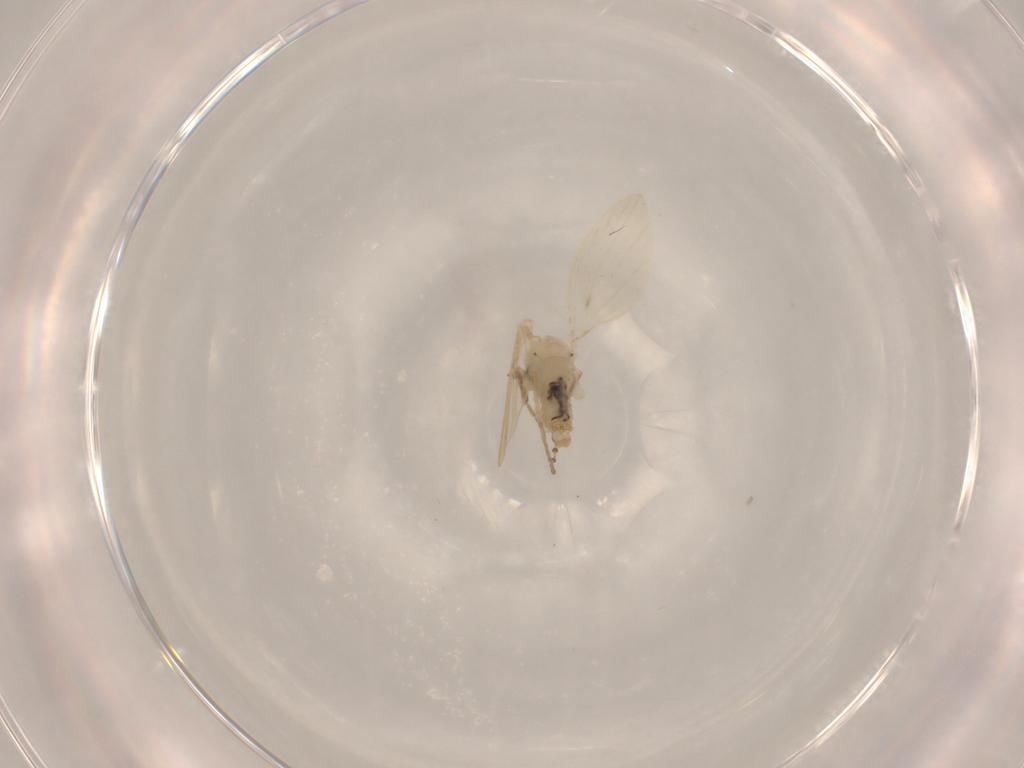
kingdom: Animalia
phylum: Arthropoda
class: Insecta
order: Diptera
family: Psychodidae
